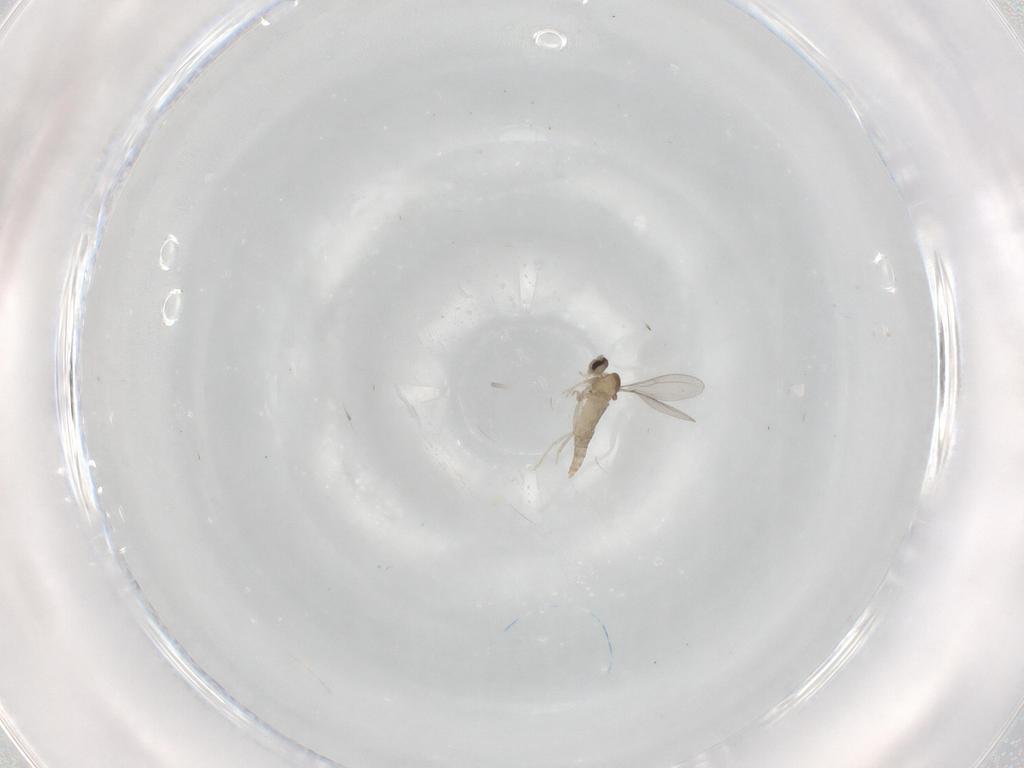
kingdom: Animalia
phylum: Arthropoda
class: Insecta
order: Diptera
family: Cecidomyiidae
